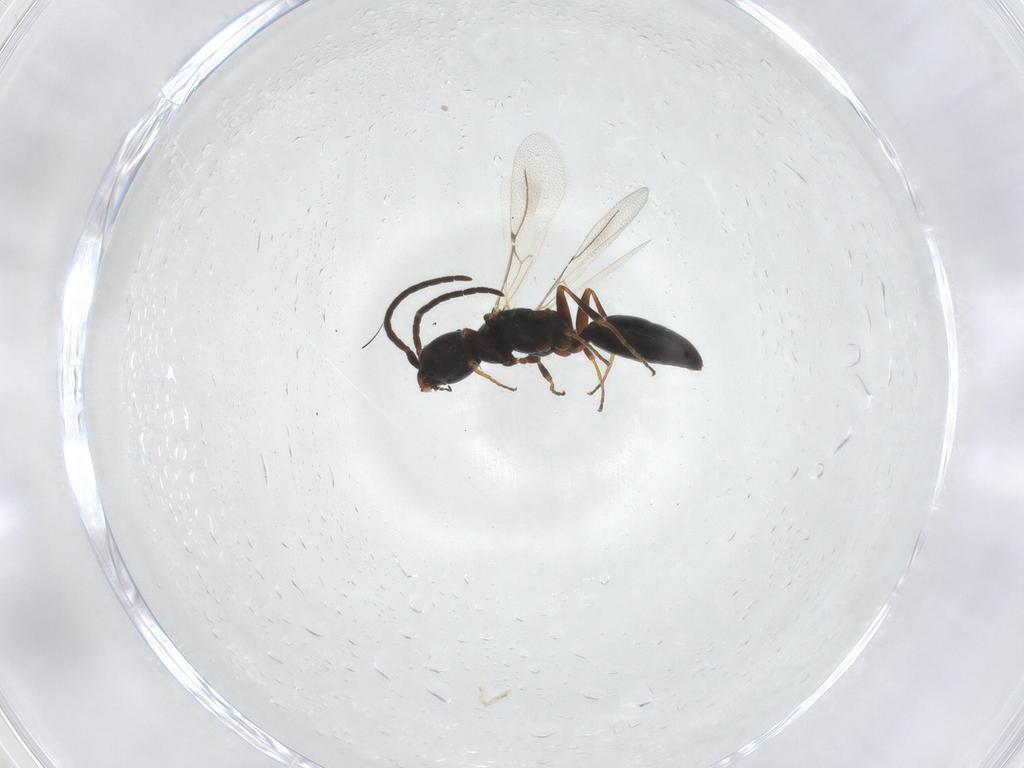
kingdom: Animalia
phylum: Arthropoda
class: Insecta
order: Hymenoptera
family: Bethylidae
